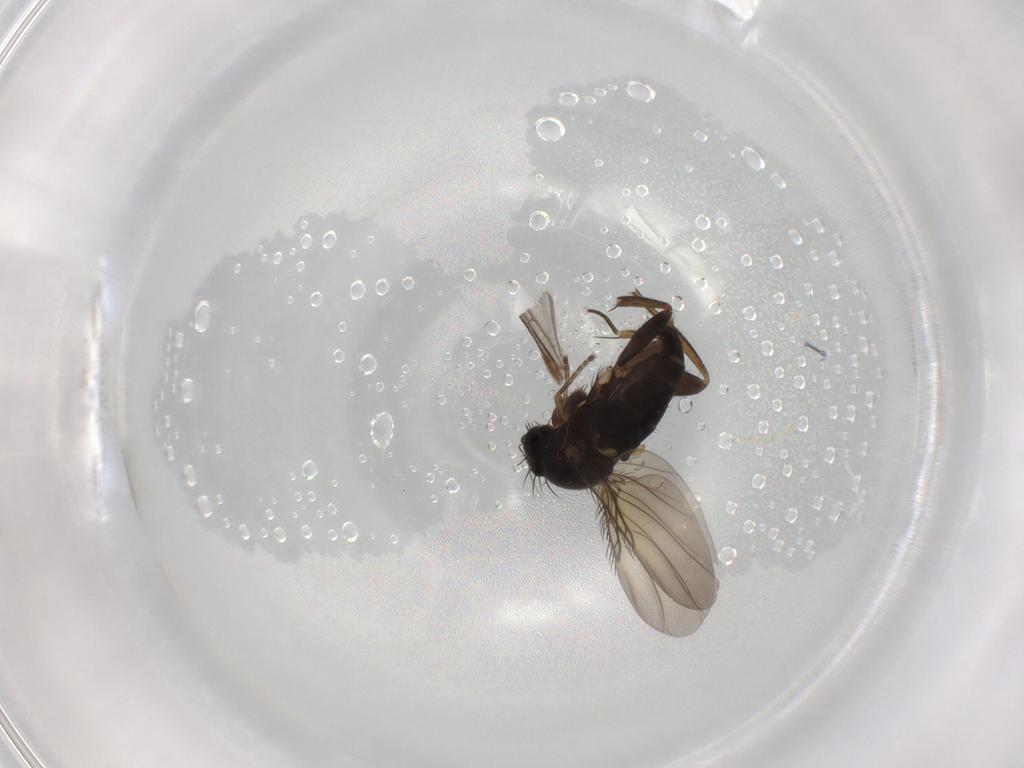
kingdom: Animalia
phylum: Arthropoda
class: Insecta
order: Diptera
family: Phoridae
